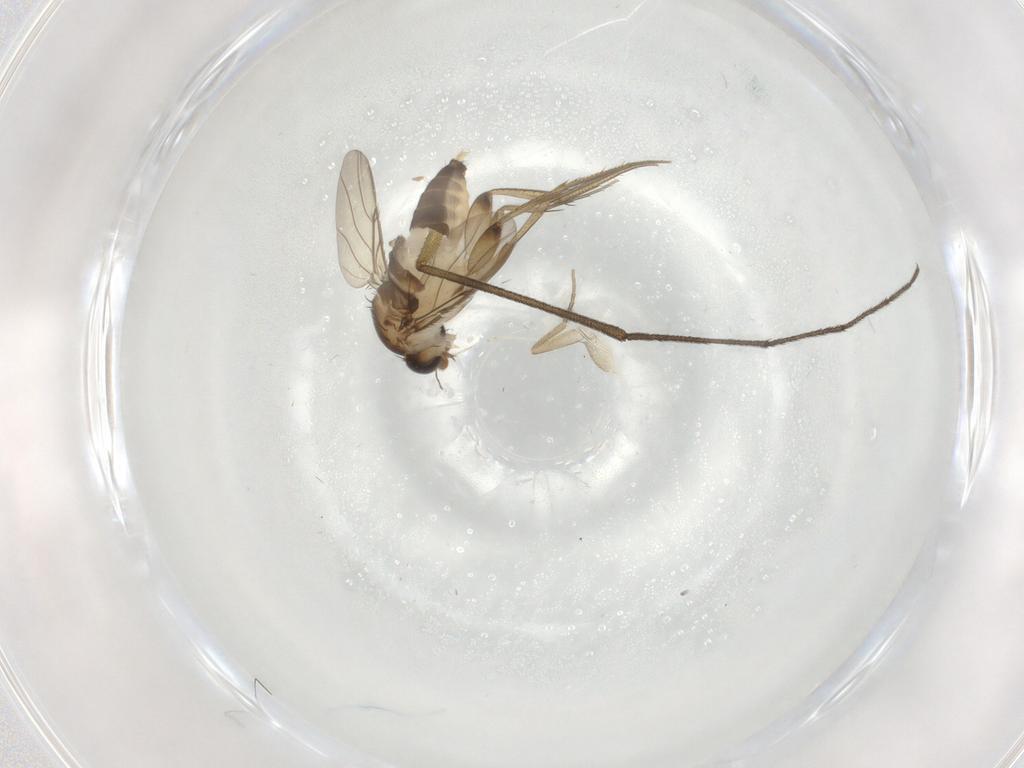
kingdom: Animalia
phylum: Arthropoda
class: Insecta
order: Diptera
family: Phoridae
